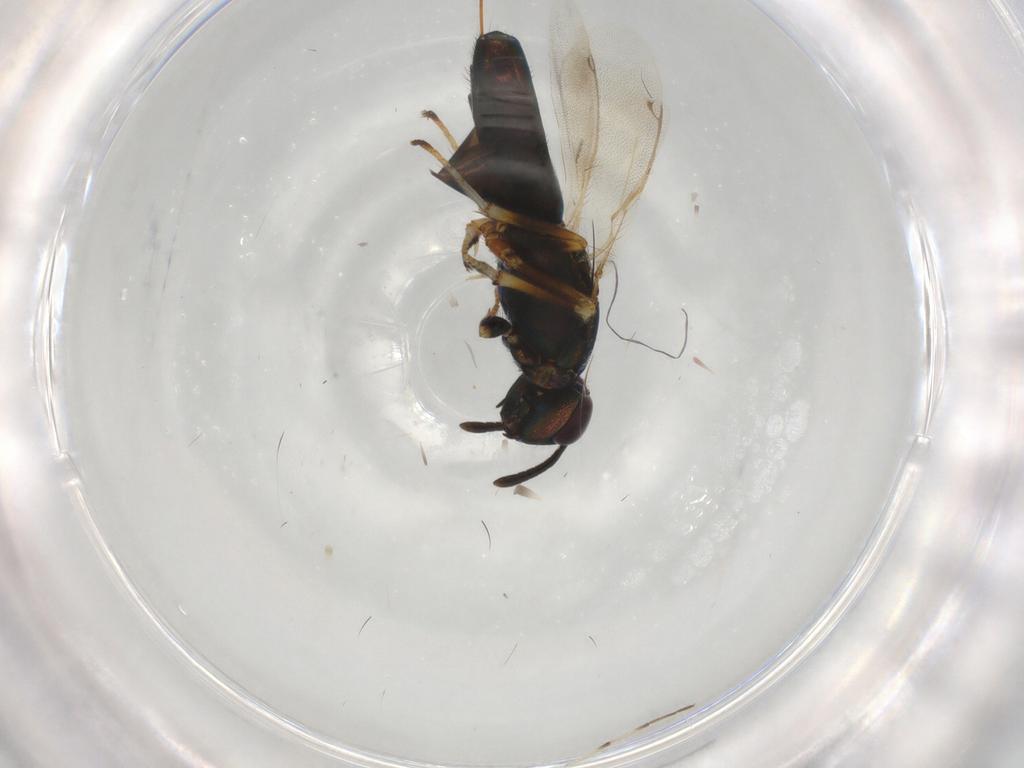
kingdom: Animalia
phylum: Arthropoda
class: Insecta
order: Hymenoptera
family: Eupelmidae
